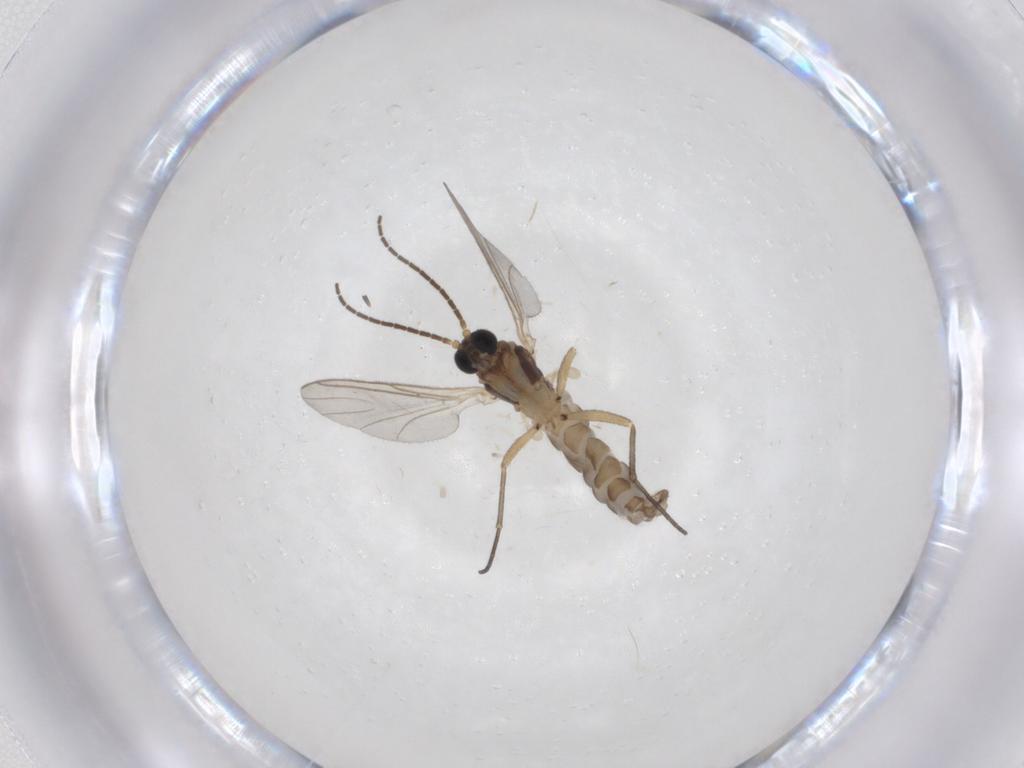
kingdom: Animalia
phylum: Arthropoda
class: Insecta
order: Diptera
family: Sciaridae
